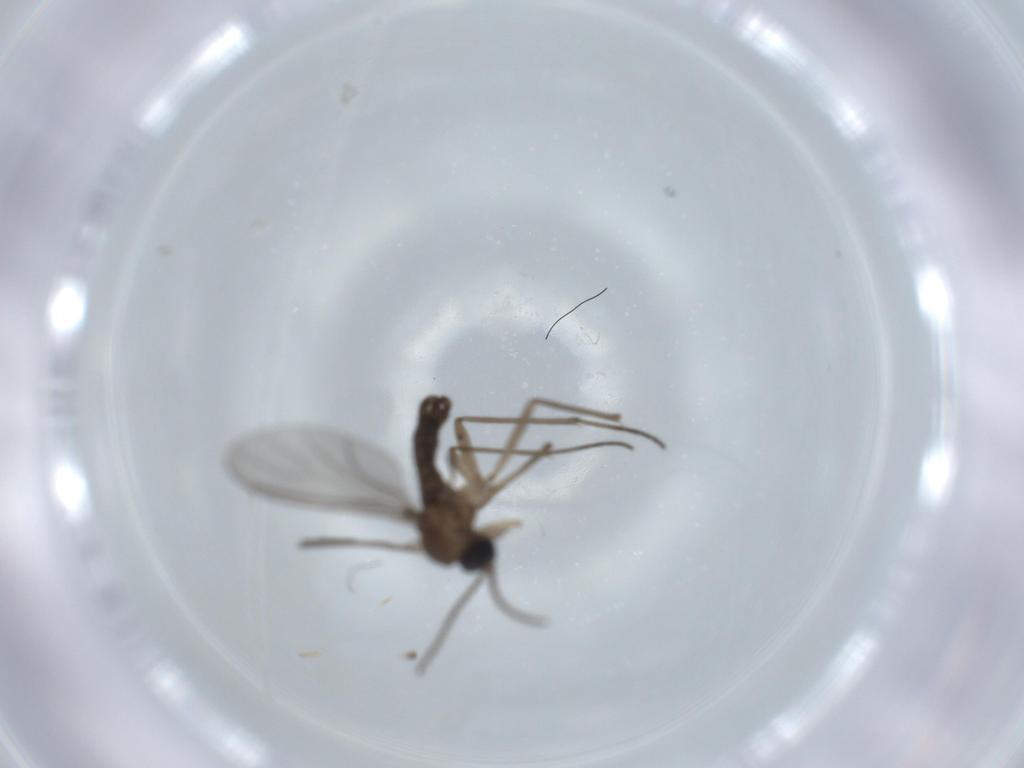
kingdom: Animalia
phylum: Arthropoda
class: Insecta
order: Diptera
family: Sciaridae
